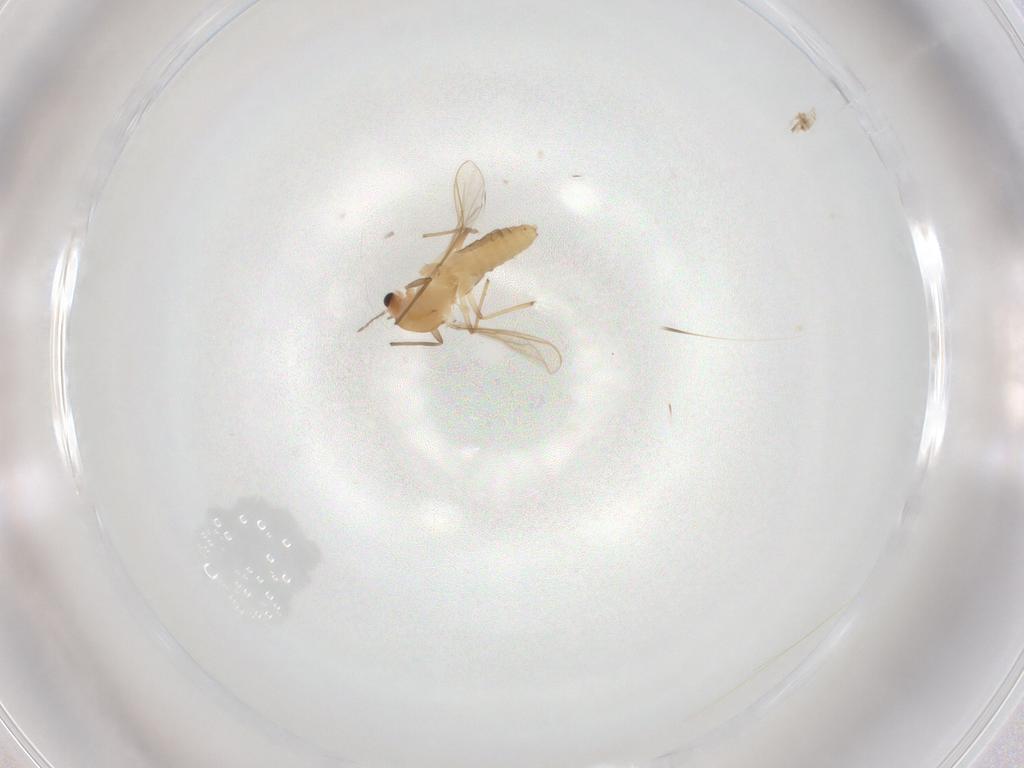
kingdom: Animalia
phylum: Arthropoda
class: Insecta
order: Diptera
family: Chironomidae
